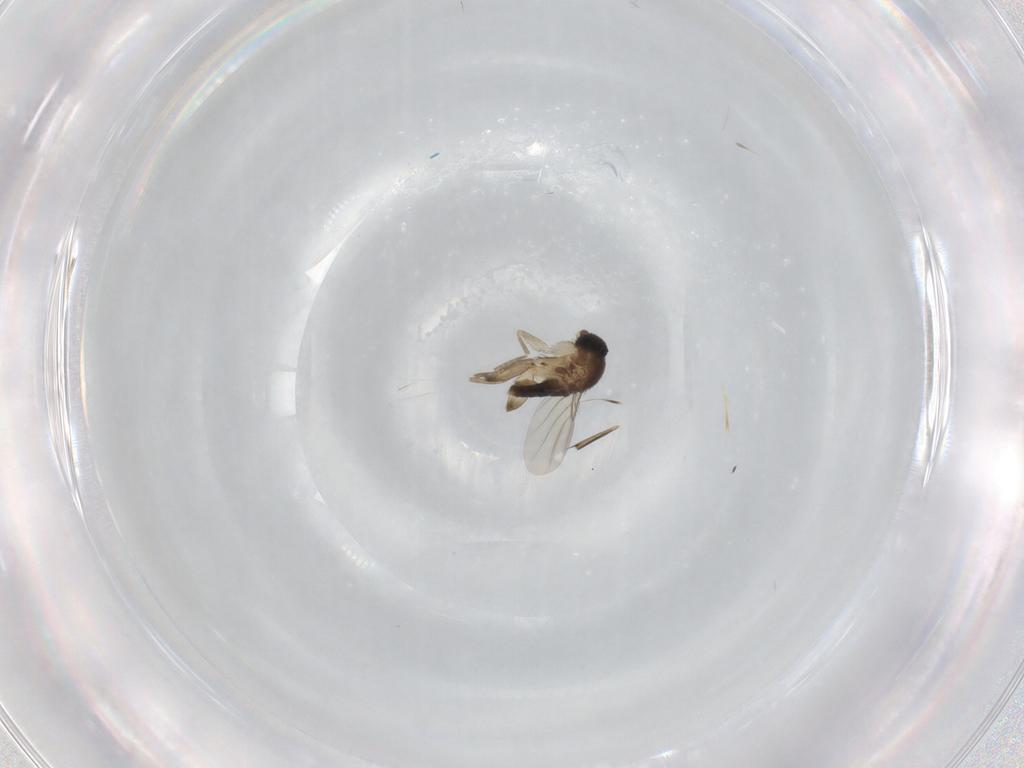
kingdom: Animalia
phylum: Arthropoda
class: Insecta
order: Diptera
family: Phoridae
